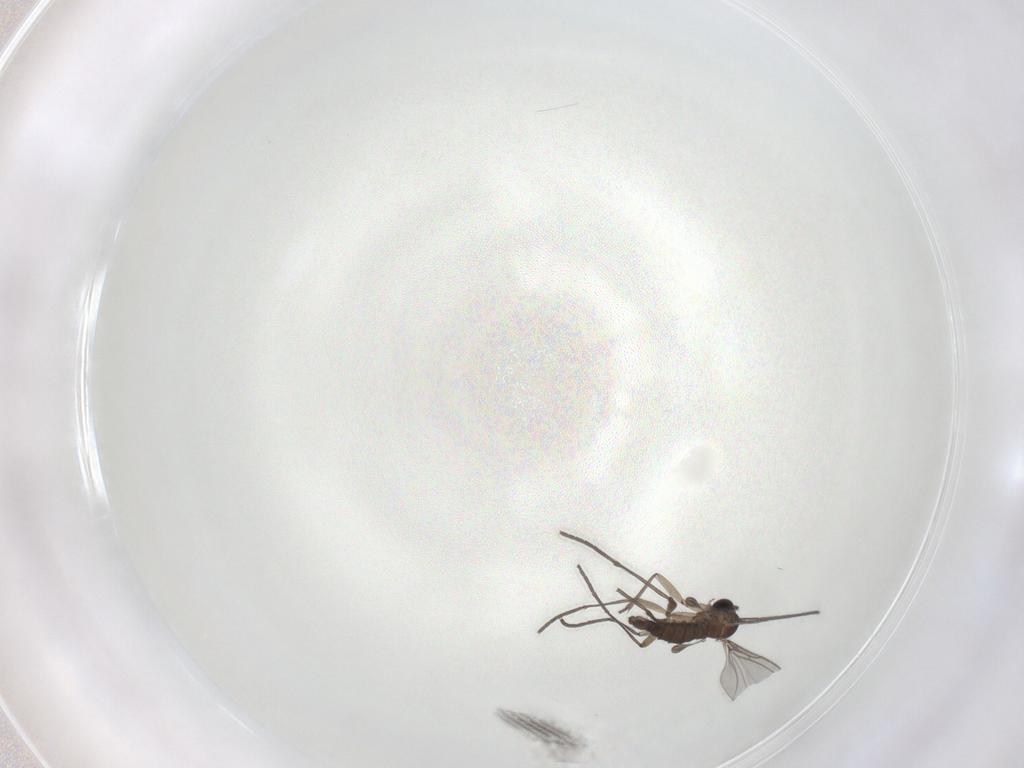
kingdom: Animalia
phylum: Arthropoda
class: Insecta
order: Diptera
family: Sciaridae
